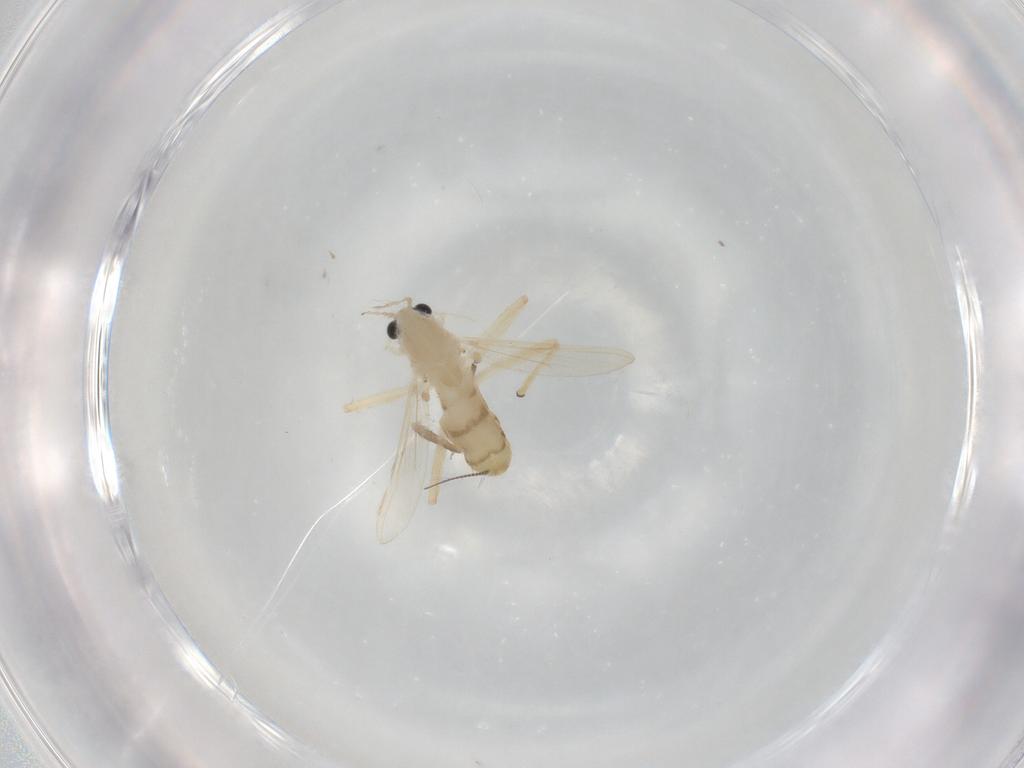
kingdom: Animalia
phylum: Arthropoda
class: Insecta
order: Diptera
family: Chironomidae
